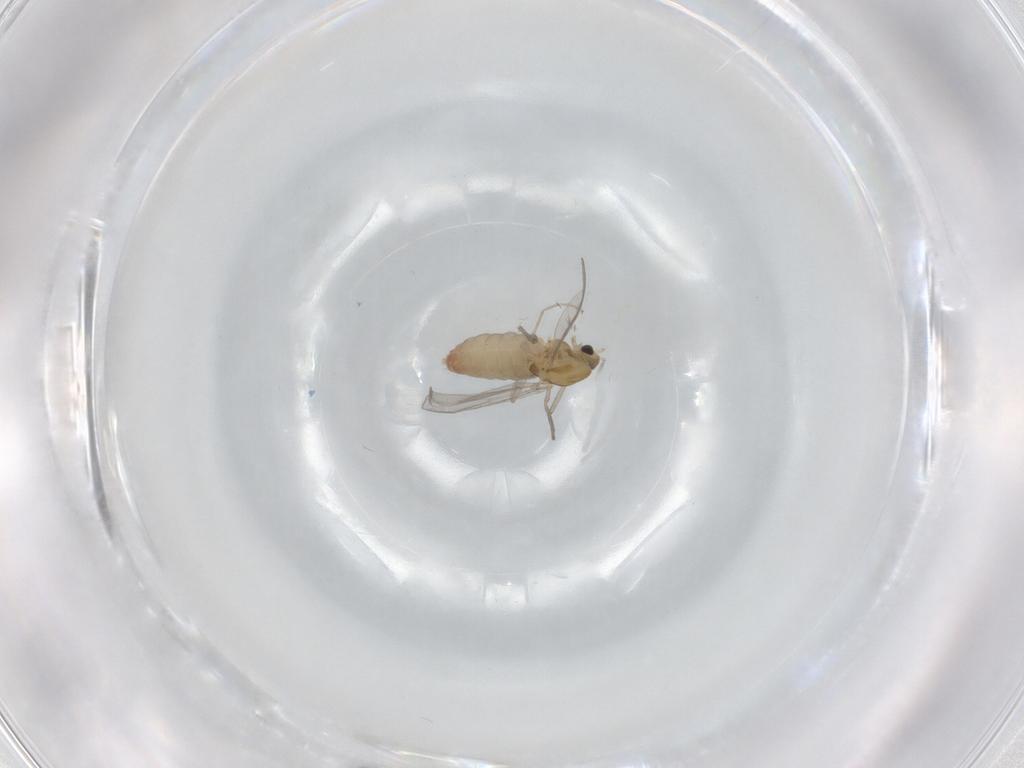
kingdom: Animalia
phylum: Arthropoda
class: Insecta
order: Diptera
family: Chironomidae
